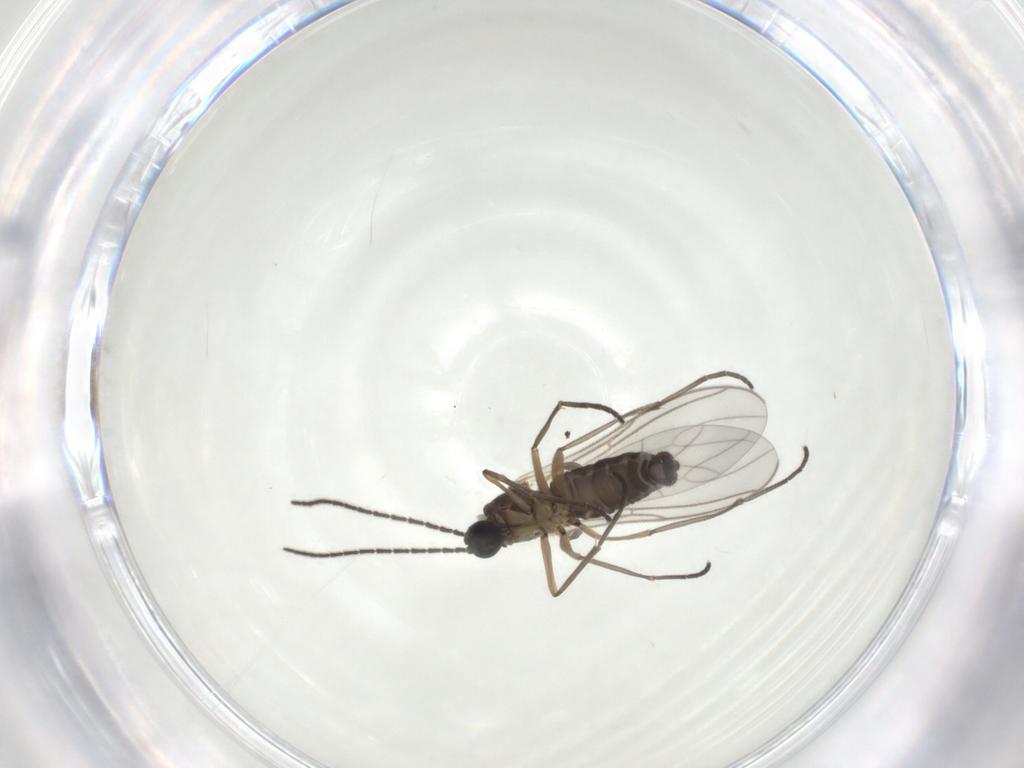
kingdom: Animalia
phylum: Arthropoda
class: Insecta
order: Diptera
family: Sciaridae
